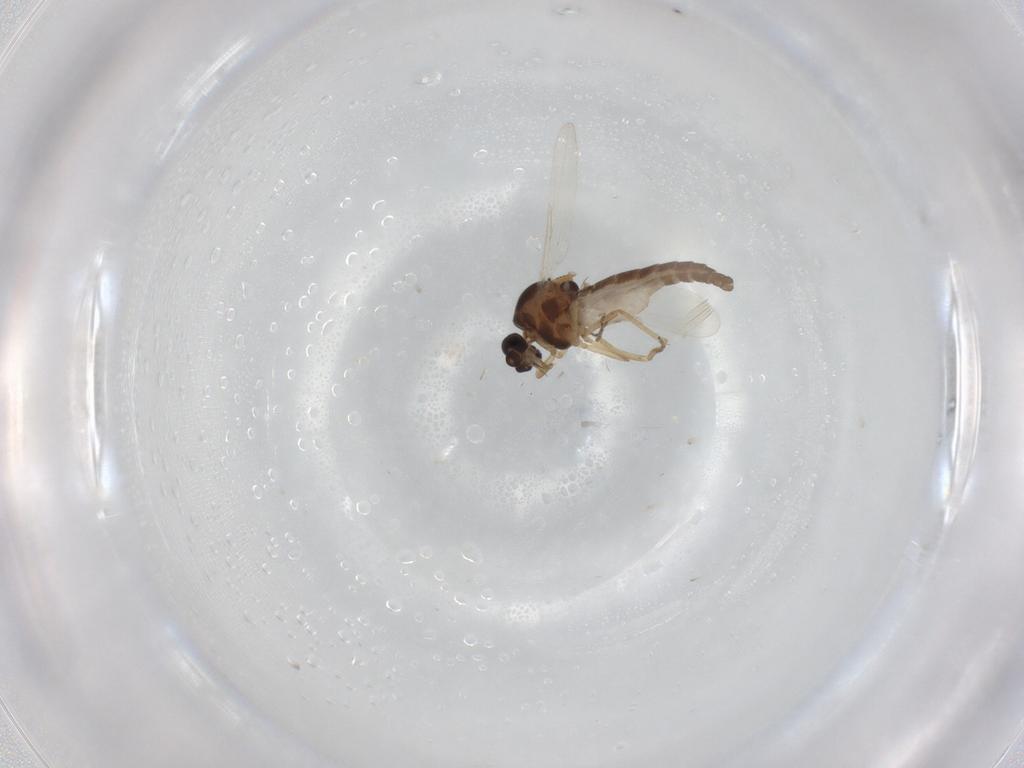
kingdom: Animalia
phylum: Arthropoda
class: Insecta
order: Diptera
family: Ceratopogonidae
